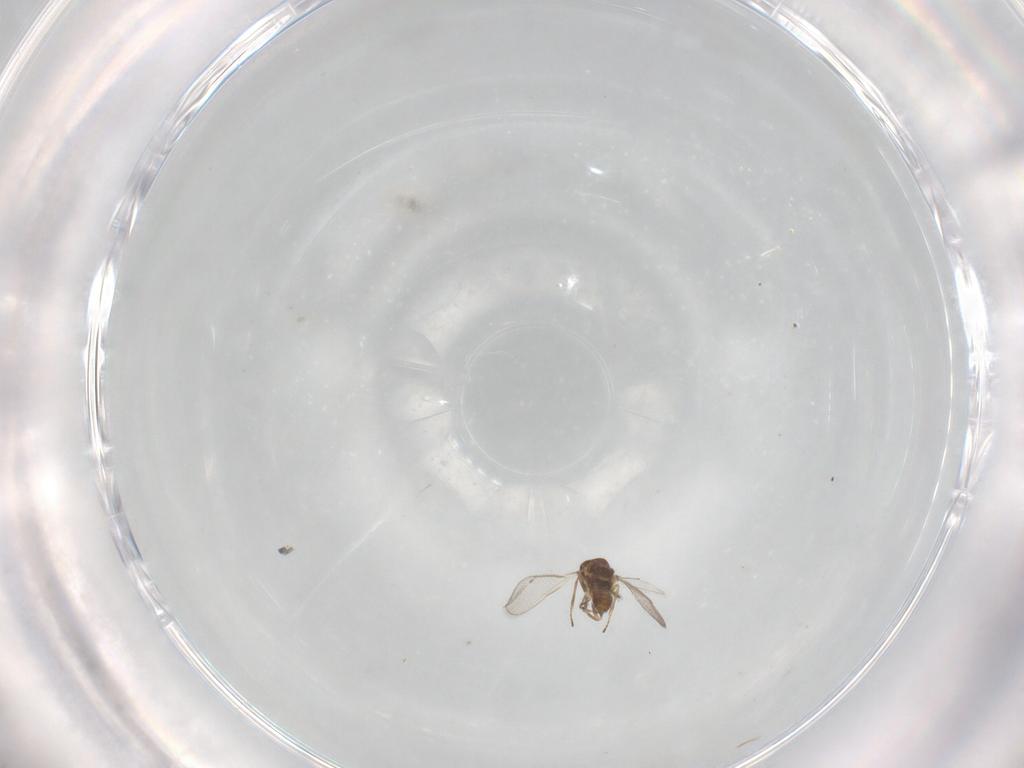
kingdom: Animalia
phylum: Arthropoda
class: Insecta
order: Hymenoptera
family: Eulophidae
